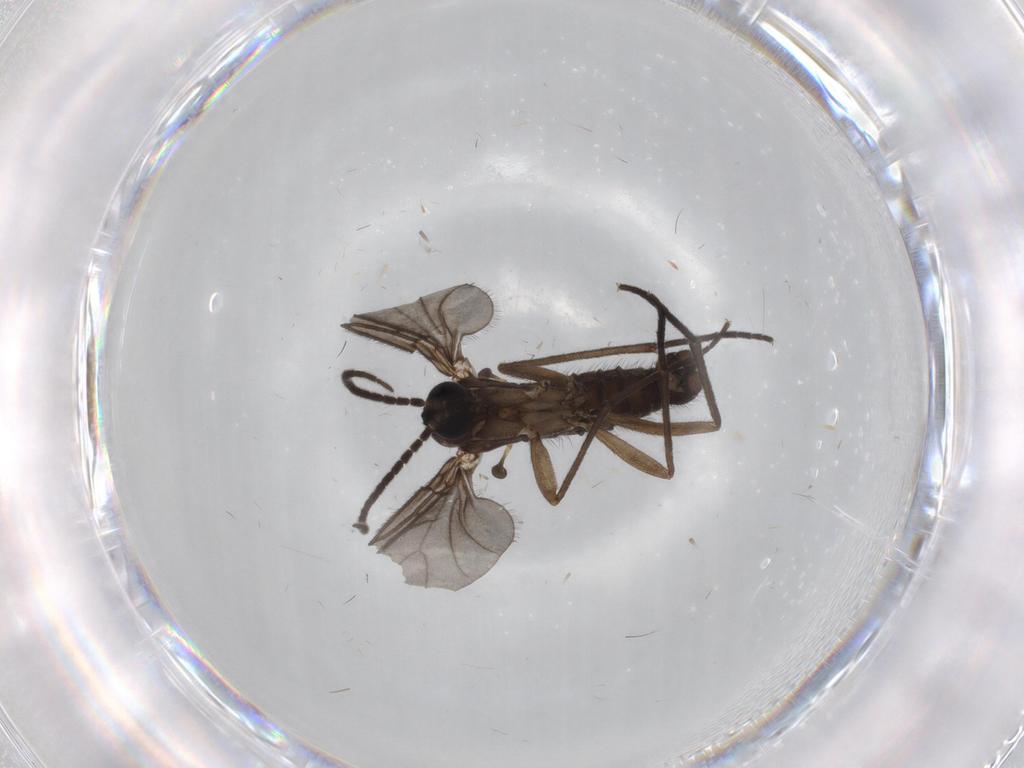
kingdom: Animalia
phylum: Arthropoda
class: Insecta
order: Diptera
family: Sciaridae
